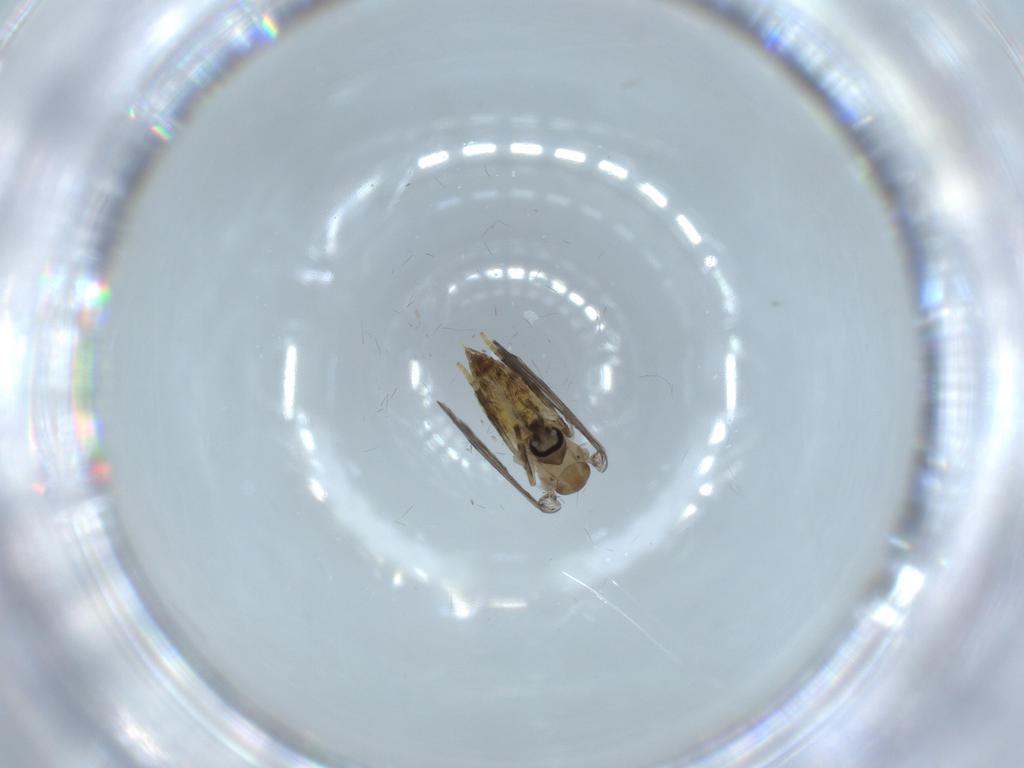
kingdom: Animalia
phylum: Arthropoda
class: Insecta
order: Diptera
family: Psychodidae
